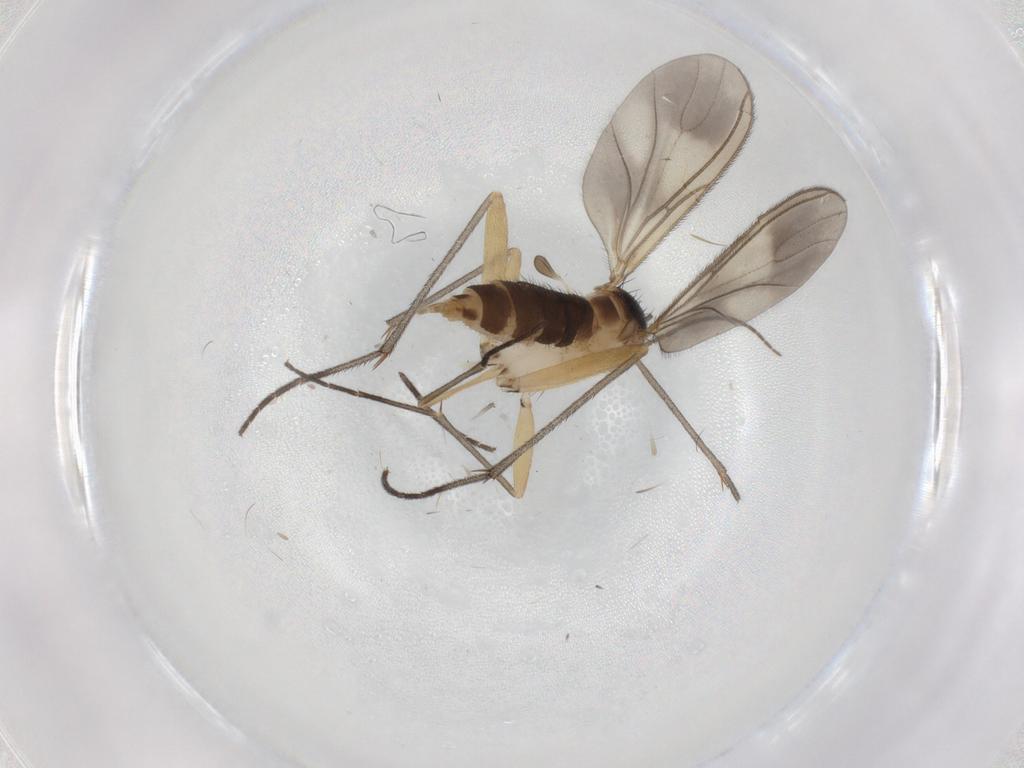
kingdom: Animalia
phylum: Arthropoda
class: Insecta
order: Diptera
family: Sciaridae
